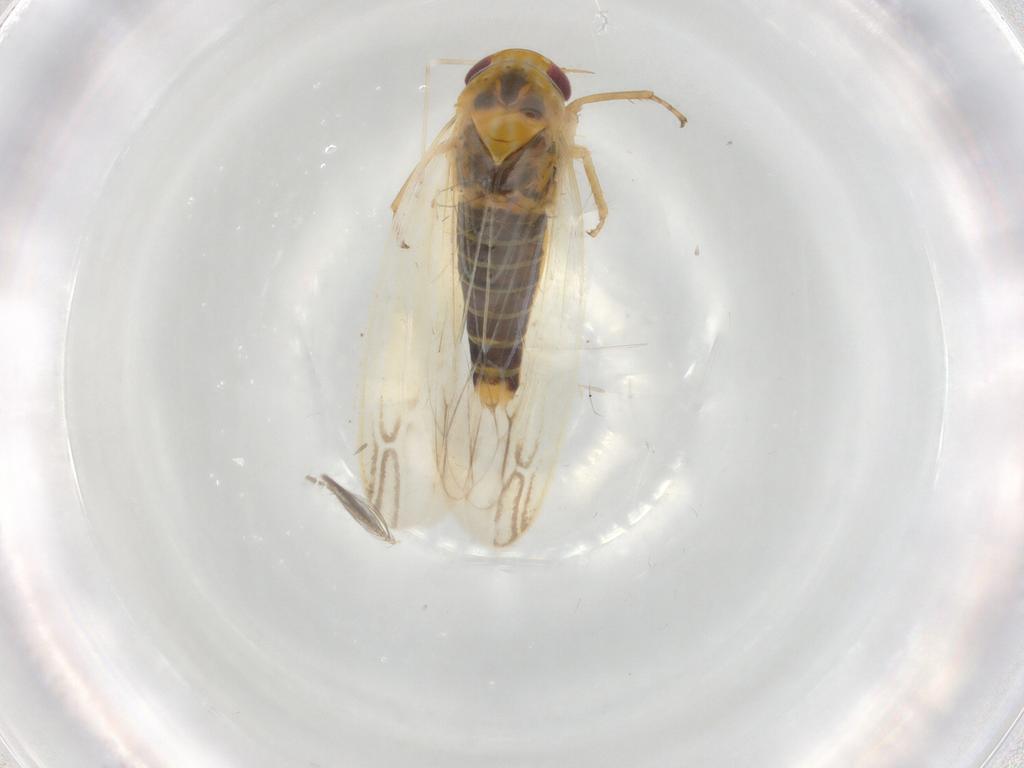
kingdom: Animalia
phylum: Arthropoda
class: Insecta
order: Hemiptera
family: Cicadellidae
